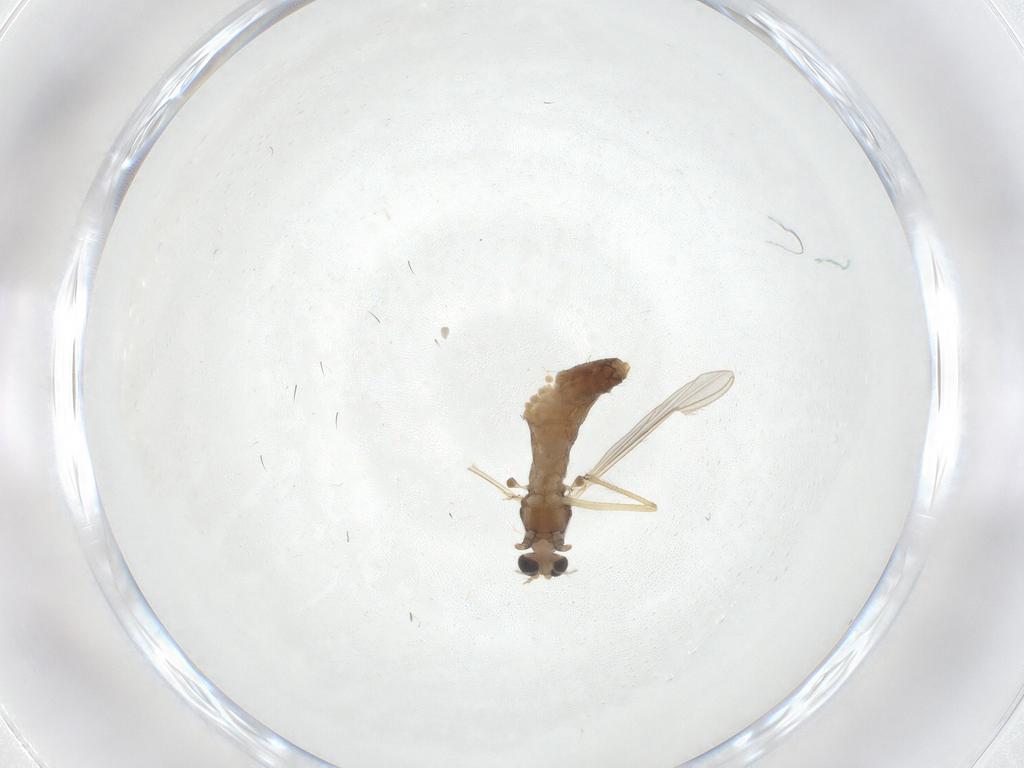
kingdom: Animalia
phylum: Arthropoda
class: Insecta
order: Diptera
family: Chironomidae
